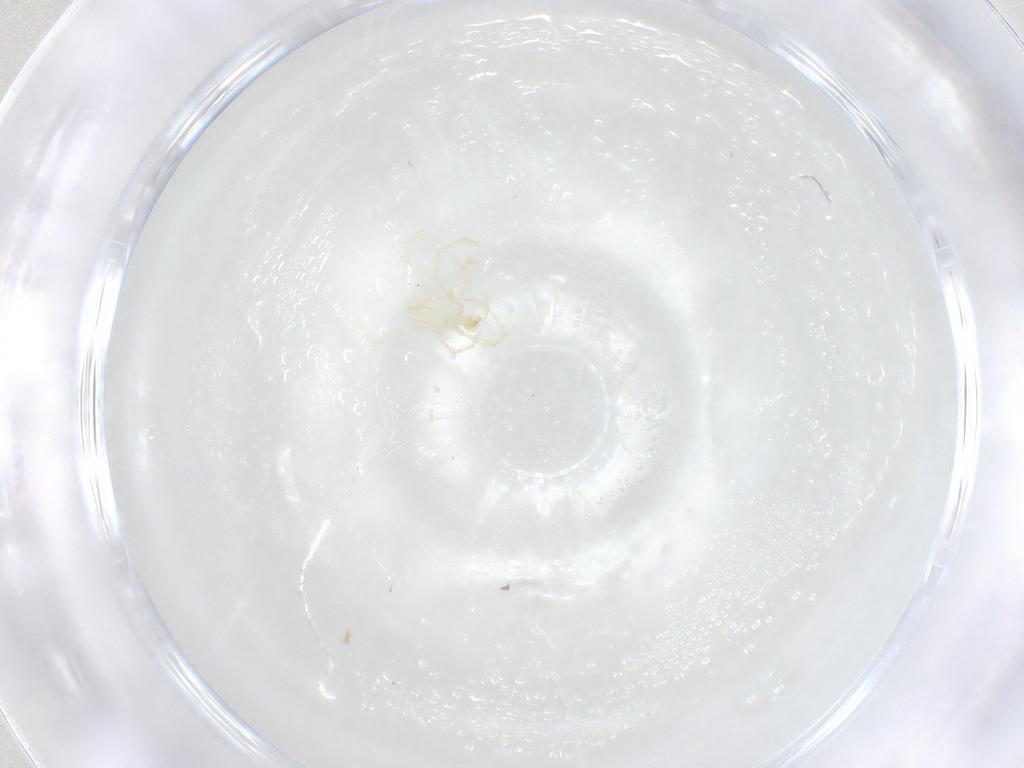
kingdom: Animalia
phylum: Arthropoda
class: Arachnida
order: Trombidiformes
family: Erythraeidae
